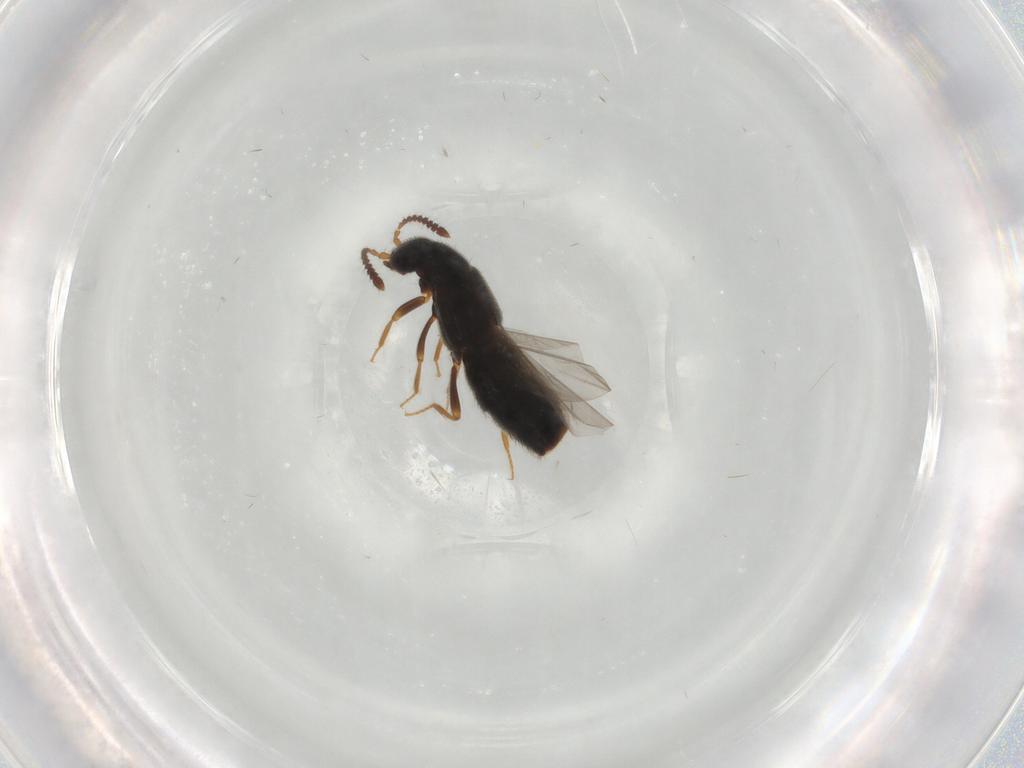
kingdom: Animalia
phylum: Arthropoda
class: Insecta
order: Coleoptera
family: Staphylinidae
